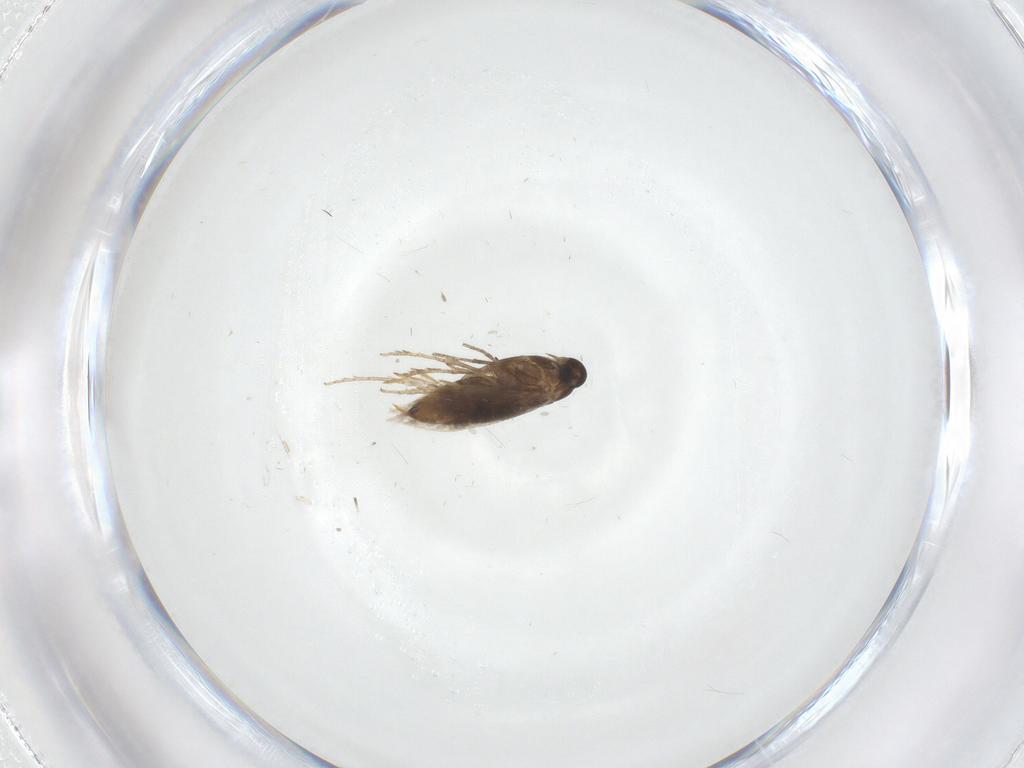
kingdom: Animalia
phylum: Arthropoda
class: Insecta
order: Lepidoptera
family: Heliozelidae
